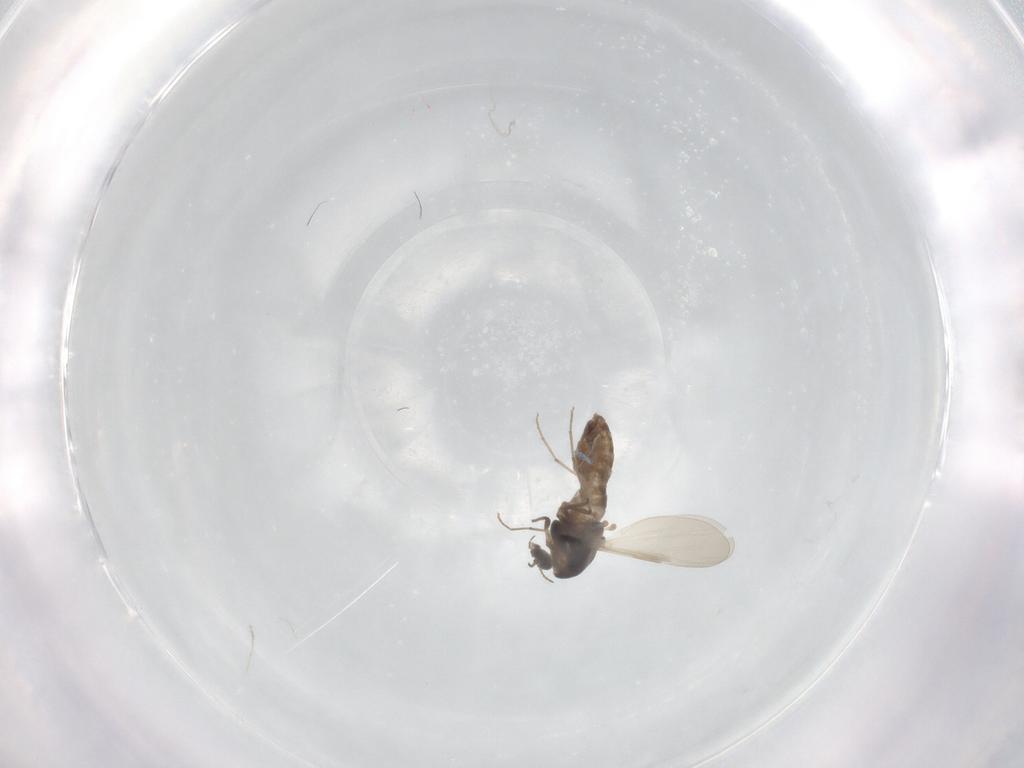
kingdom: Animalia
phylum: Arthropoda
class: Insecta
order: Diptera
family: Chironomidae
